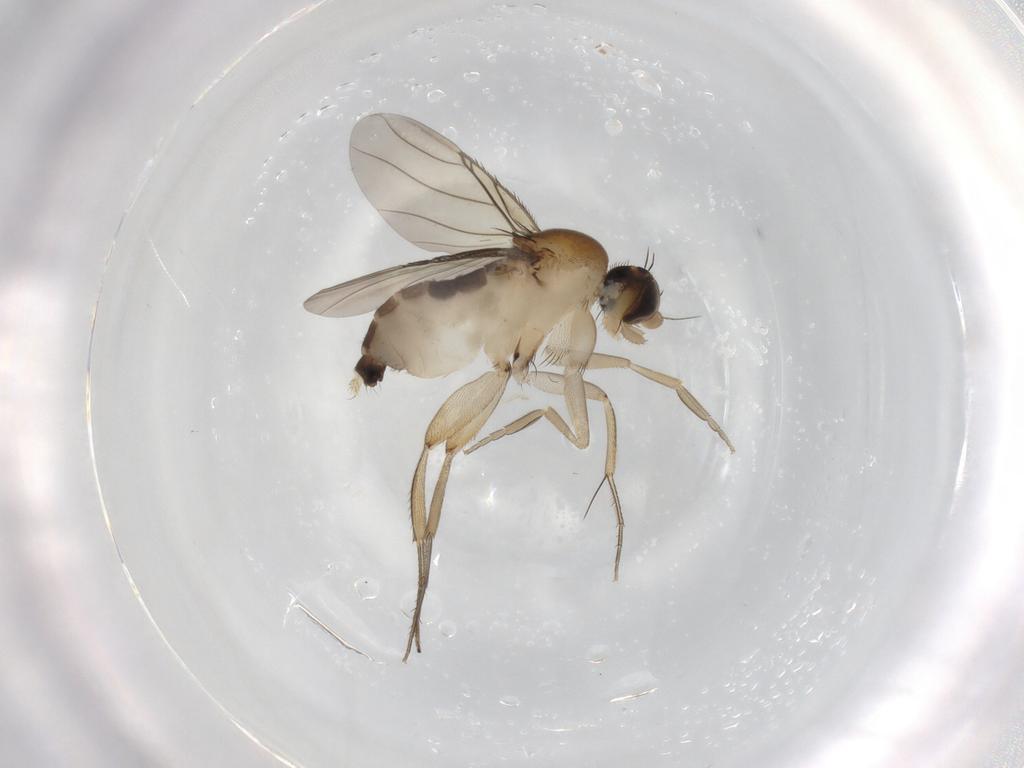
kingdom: Animalia
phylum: Arthropoda
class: Insecta
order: Diptera
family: Phoridae
